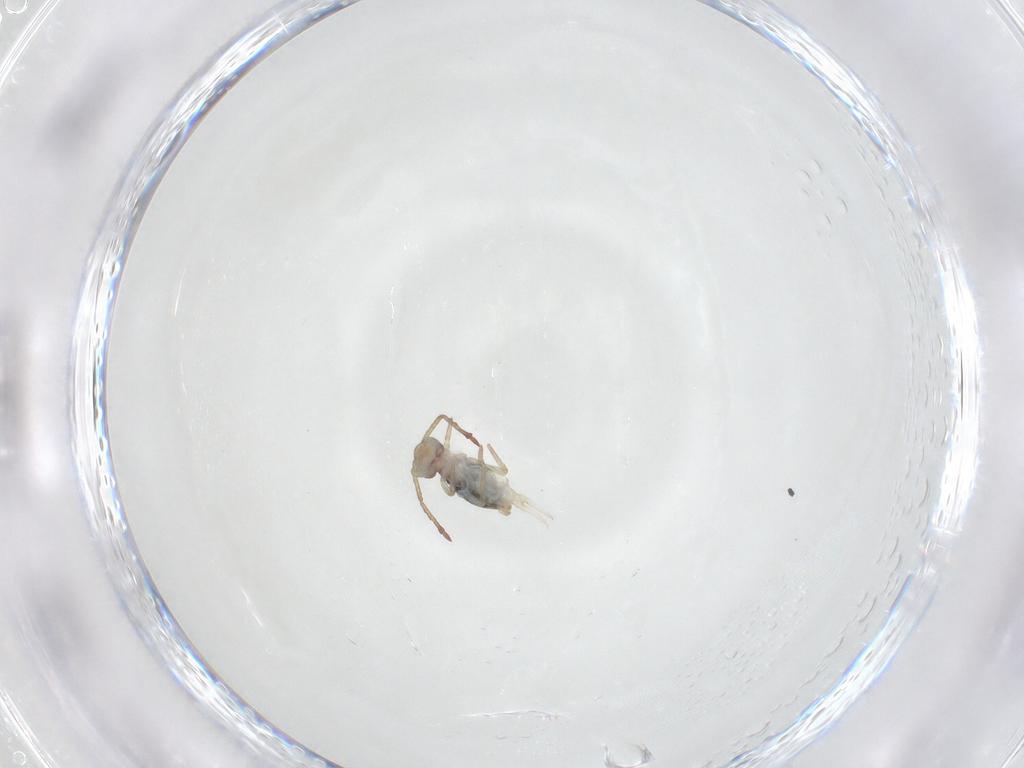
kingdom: Animalia
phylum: Arthropoda
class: Collembola
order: Symphypleona
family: Dicyrtomidae
